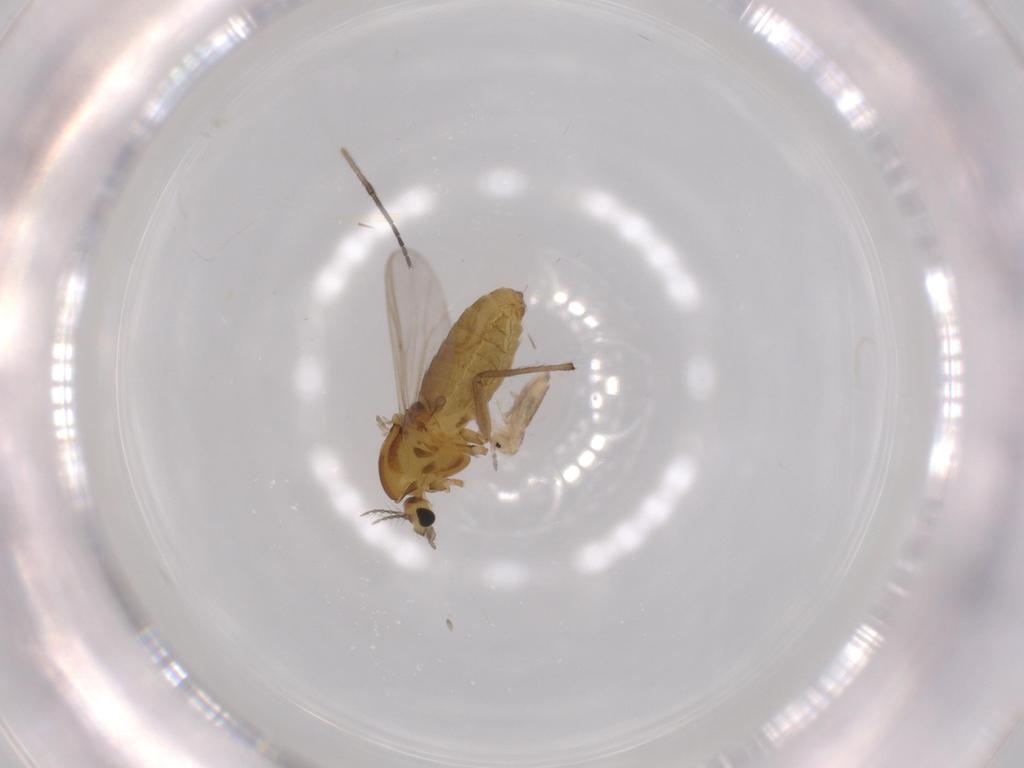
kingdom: Animalia
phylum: Arthropoda
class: Insecta
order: Diptera
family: Chironomidae
